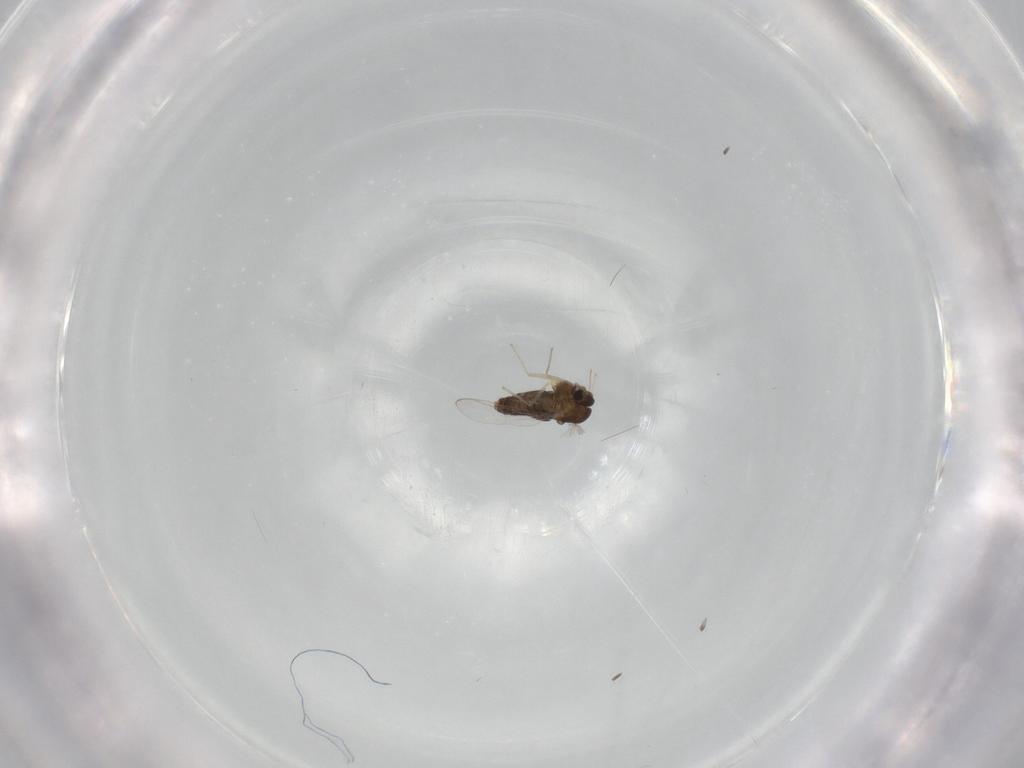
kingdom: Animalia
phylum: Arthropoda
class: Insecta
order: Diptera
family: Chironomidae
